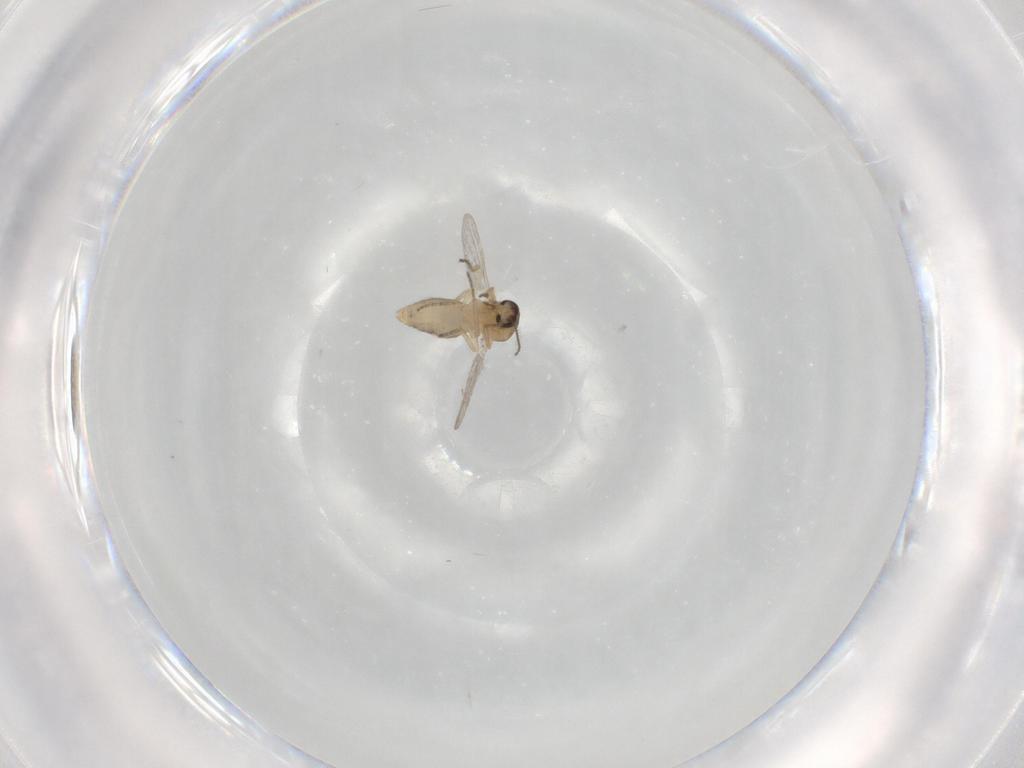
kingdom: Animalia
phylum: Arthropoda
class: Insecta
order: Diptera
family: Ceratopogonidae
